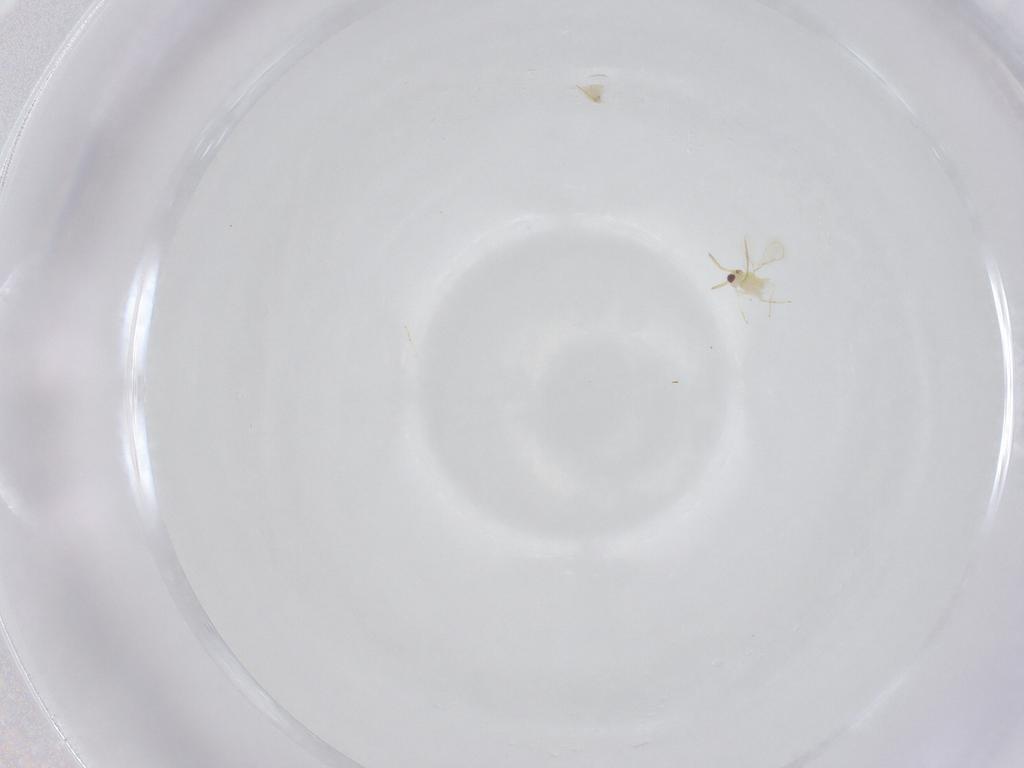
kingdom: Animalia
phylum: Arthropoda
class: Insecta
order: Hymenoptera
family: Aphelinidae
